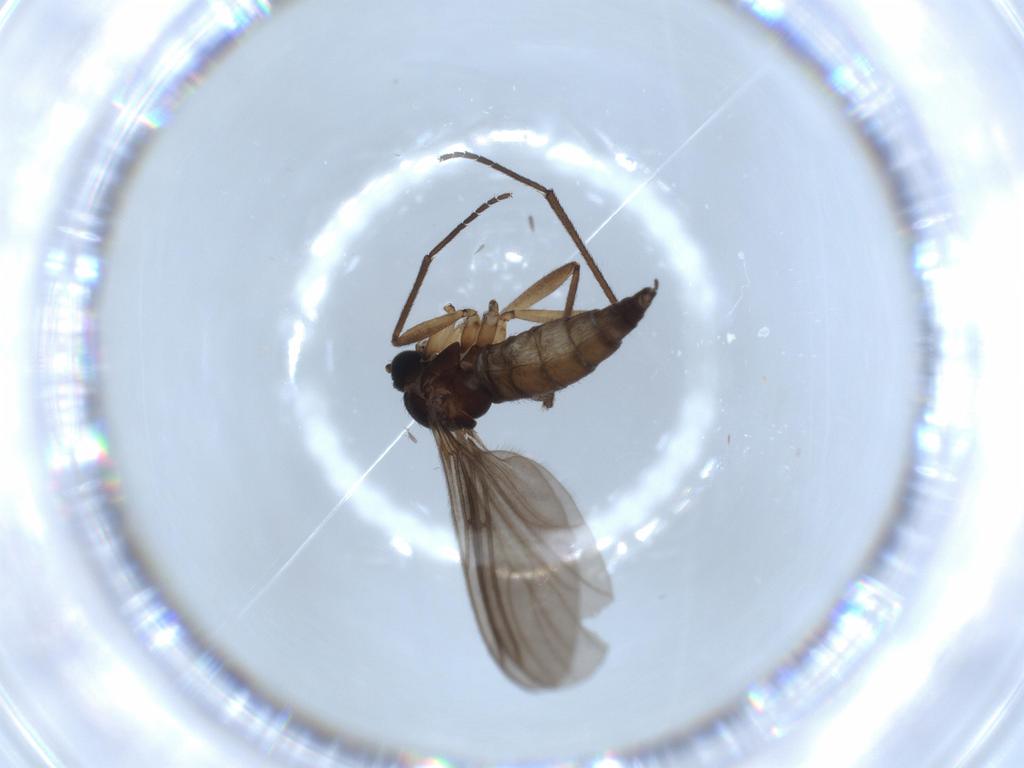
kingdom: Animalia
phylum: Arthropoda
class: Insecta
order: Diptera
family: Sciaridae
